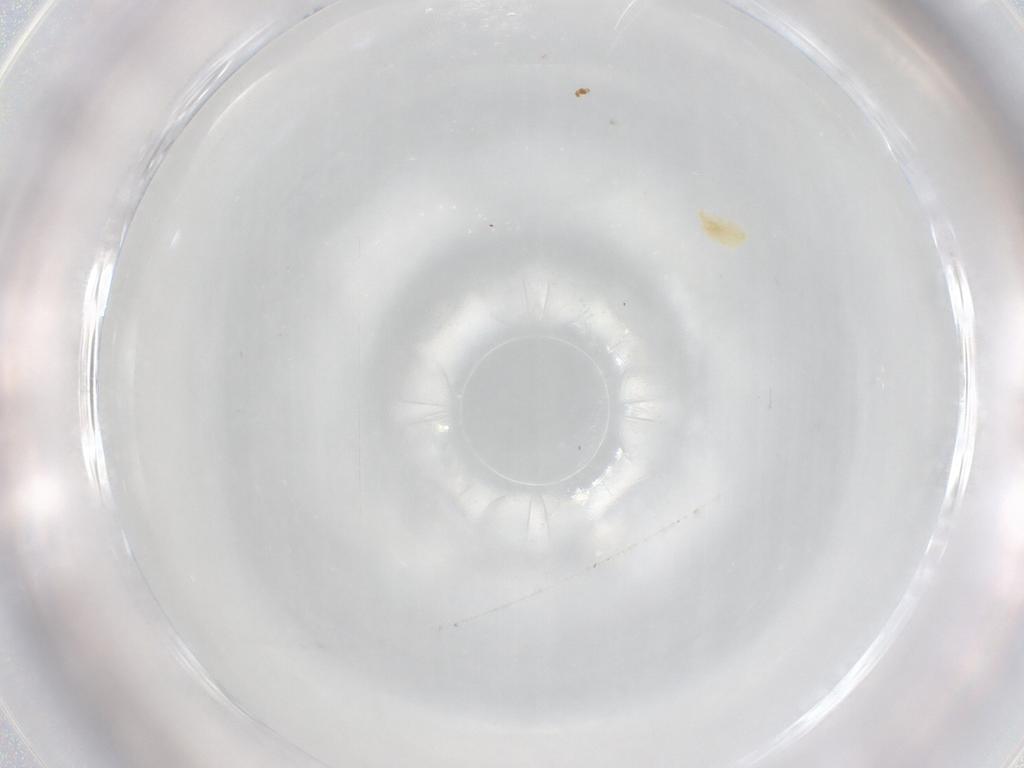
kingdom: Animalia
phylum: Arthropoda
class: Arachnida
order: Trombidiformes
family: Eupodidae
